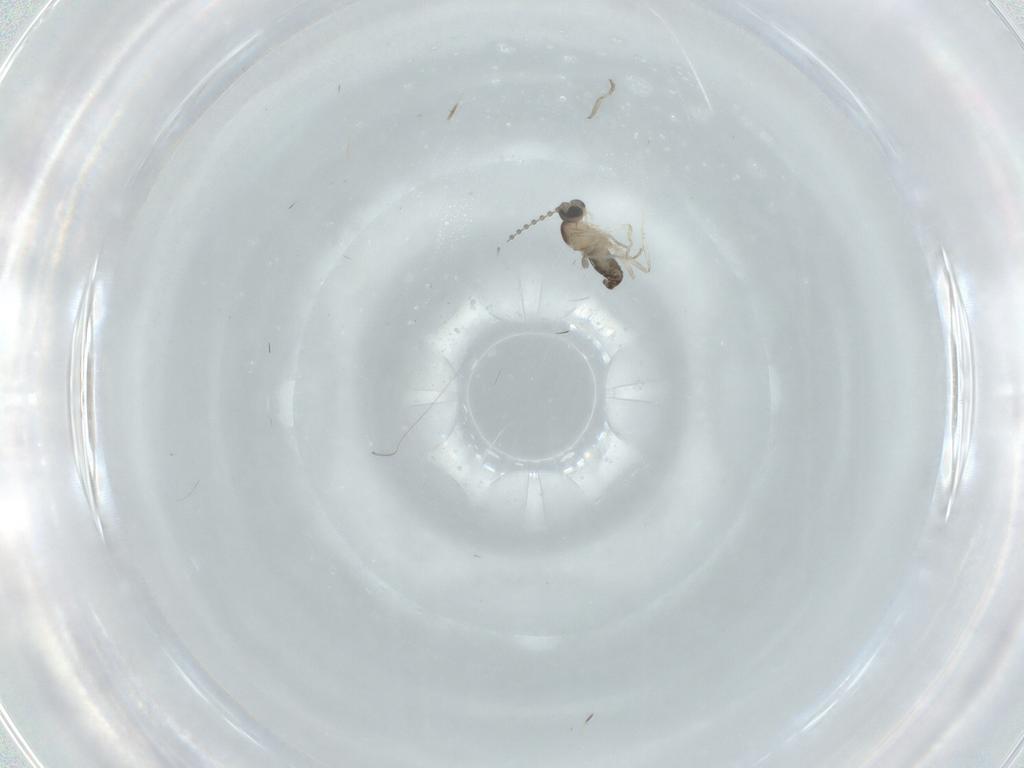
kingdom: Animalia
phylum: Arthropoda
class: Insecta
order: Diptera
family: Cecidomyiidae
